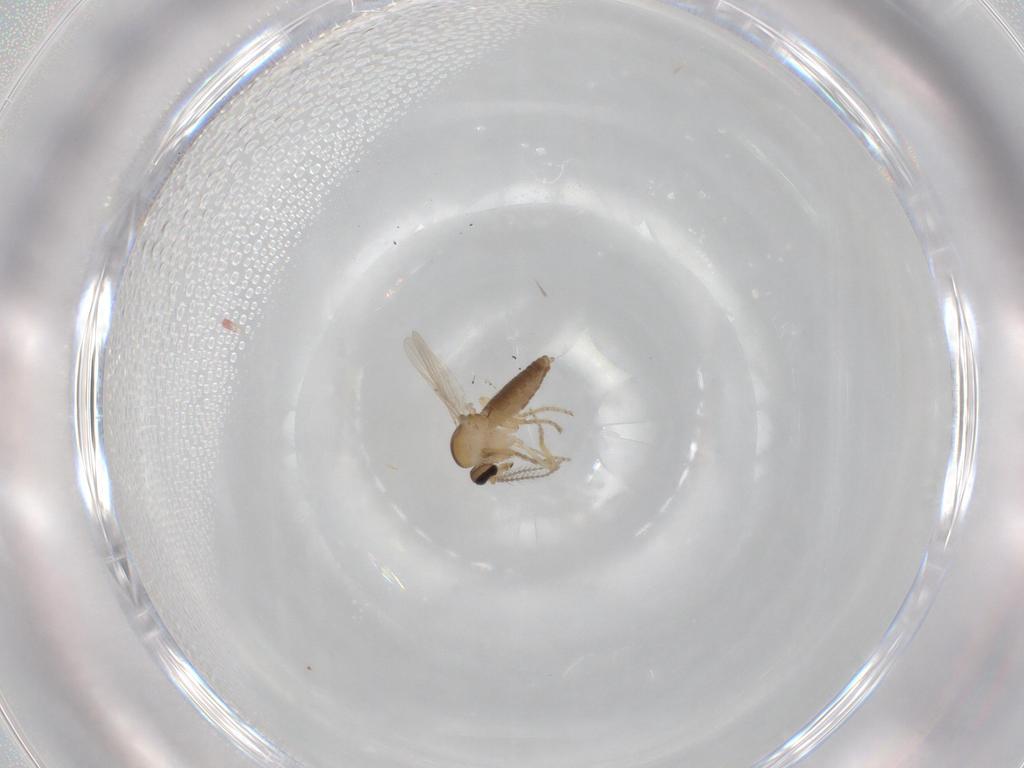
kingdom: Animalia
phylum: Arthropoda
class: Insecta
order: Diptera
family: Ceratopogonidae
